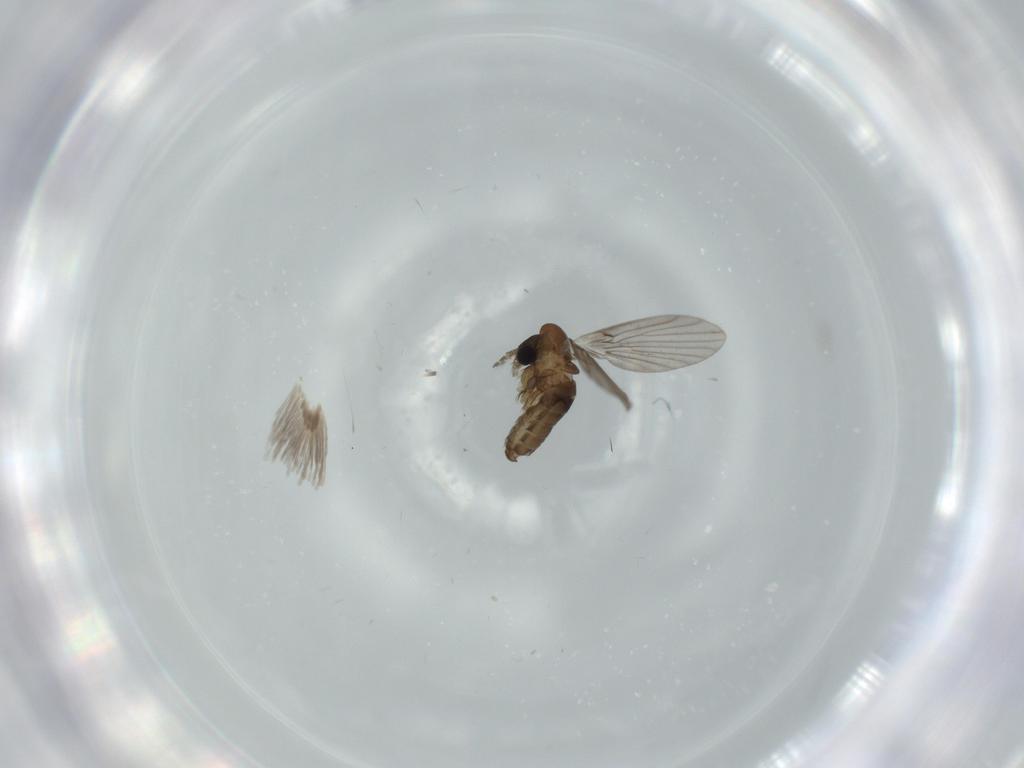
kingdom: Animalia
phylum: Arthropoda
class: Insecta
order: Diptera
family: Psychodidae
